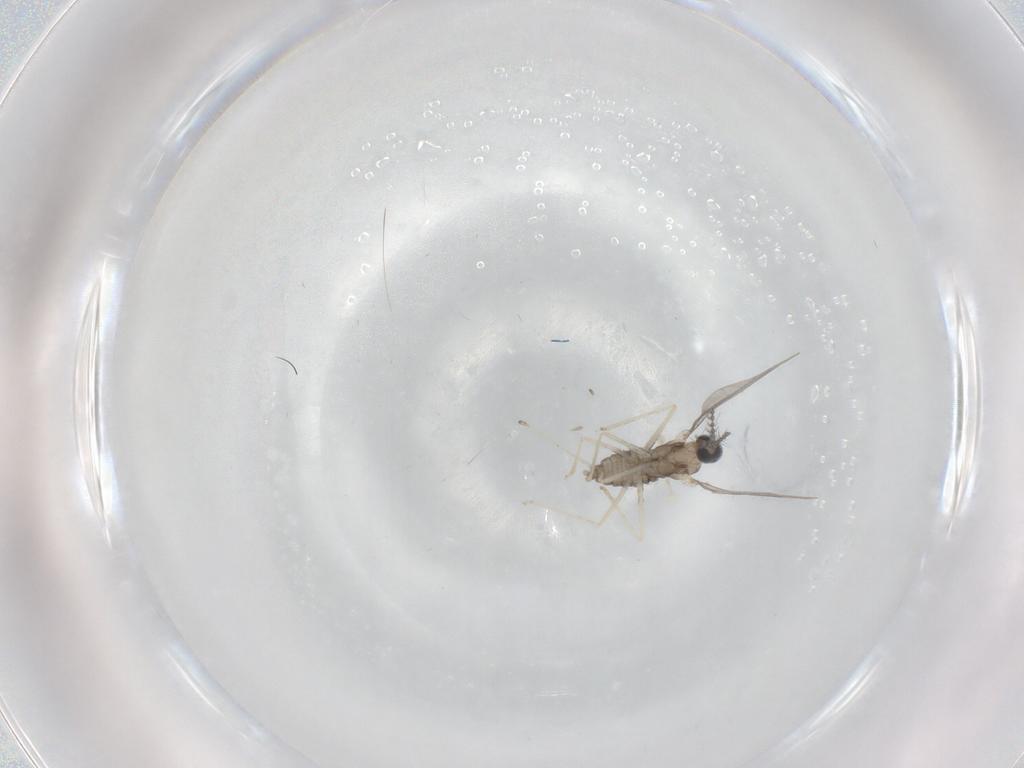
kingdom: Animalia
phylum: Arthropoda
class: Insecta
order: Diptera
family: Cecidomyiidae
